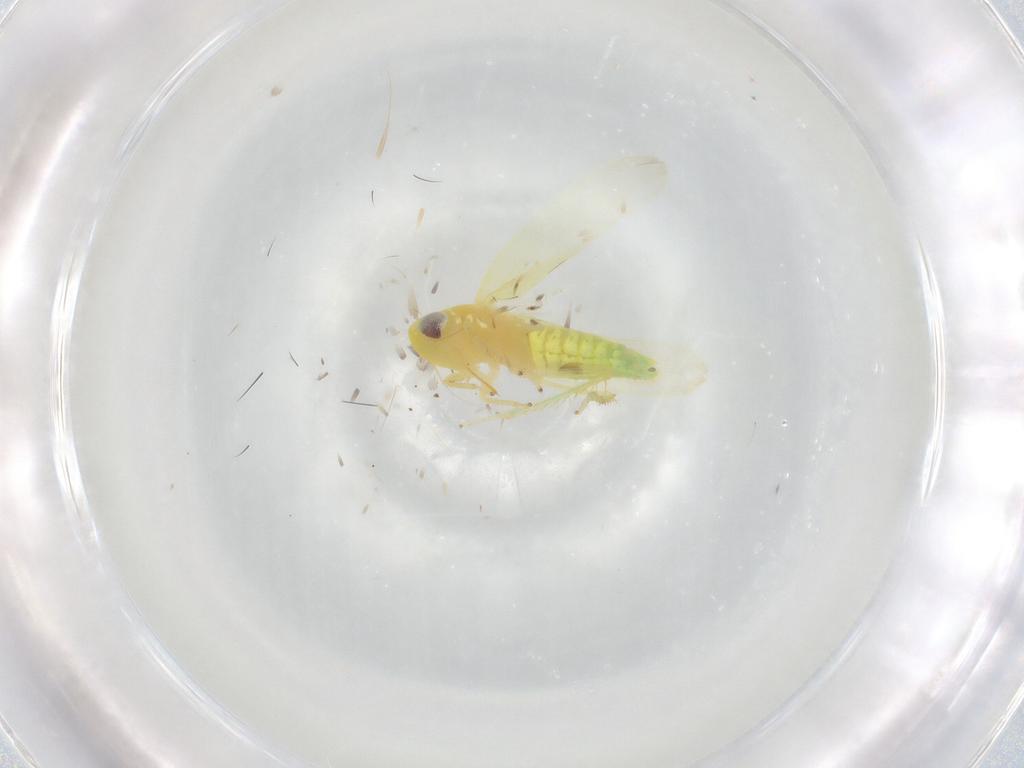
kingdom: Animalia
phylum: Arthropoda
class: Insecta
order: Hemiptera
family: Cicadellidae
